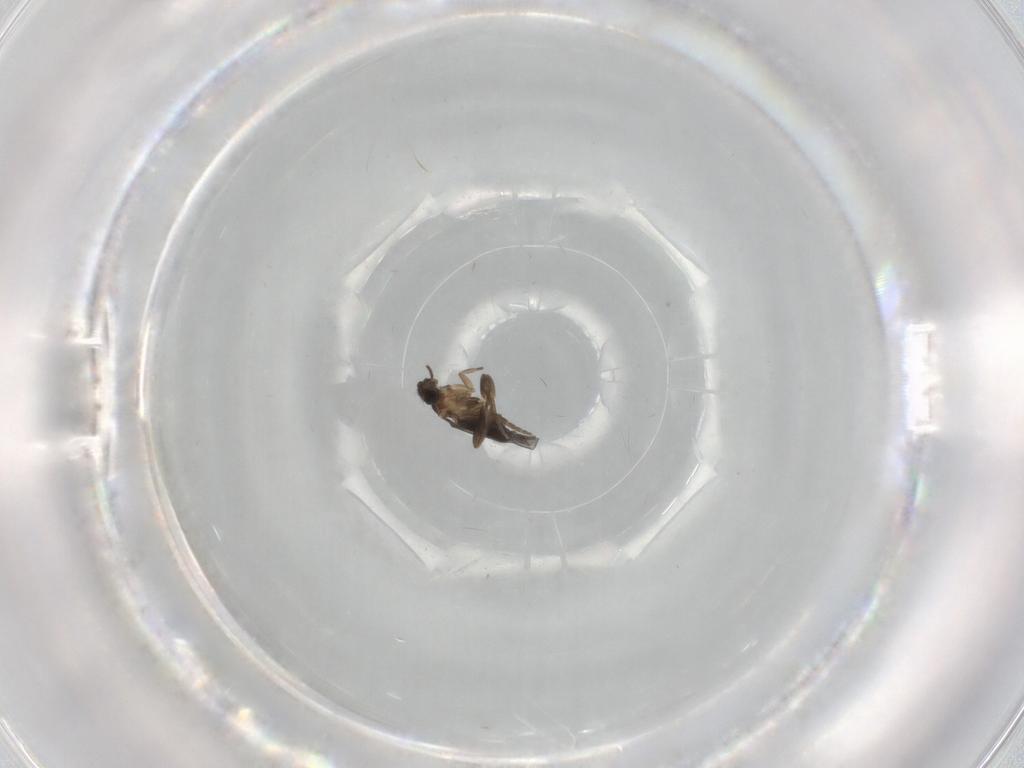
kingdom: Animalia
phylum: Arthropoda
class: Insecta
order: Diptera
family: Cecidomyiidae
